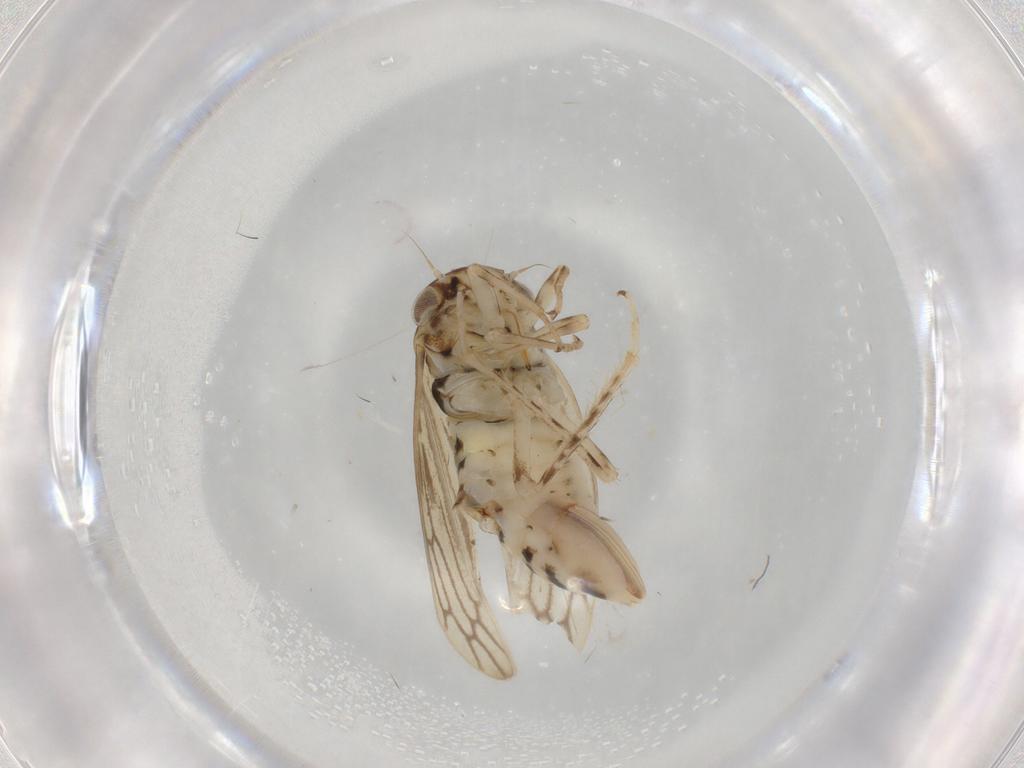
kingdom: Animalia
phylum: Arthropoda
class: Insecta
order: Hemiptera
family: Cicadellidae
